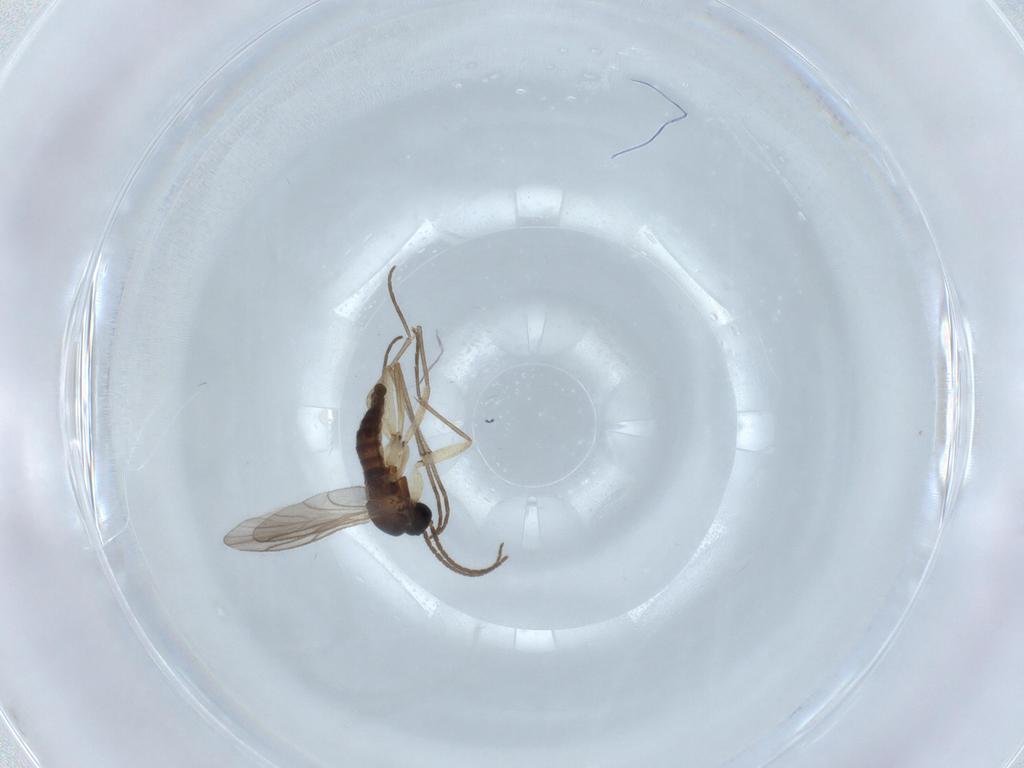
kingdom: Animalia
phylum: Arthropoda
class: Insecta
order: Diptera
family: Sciaridae
